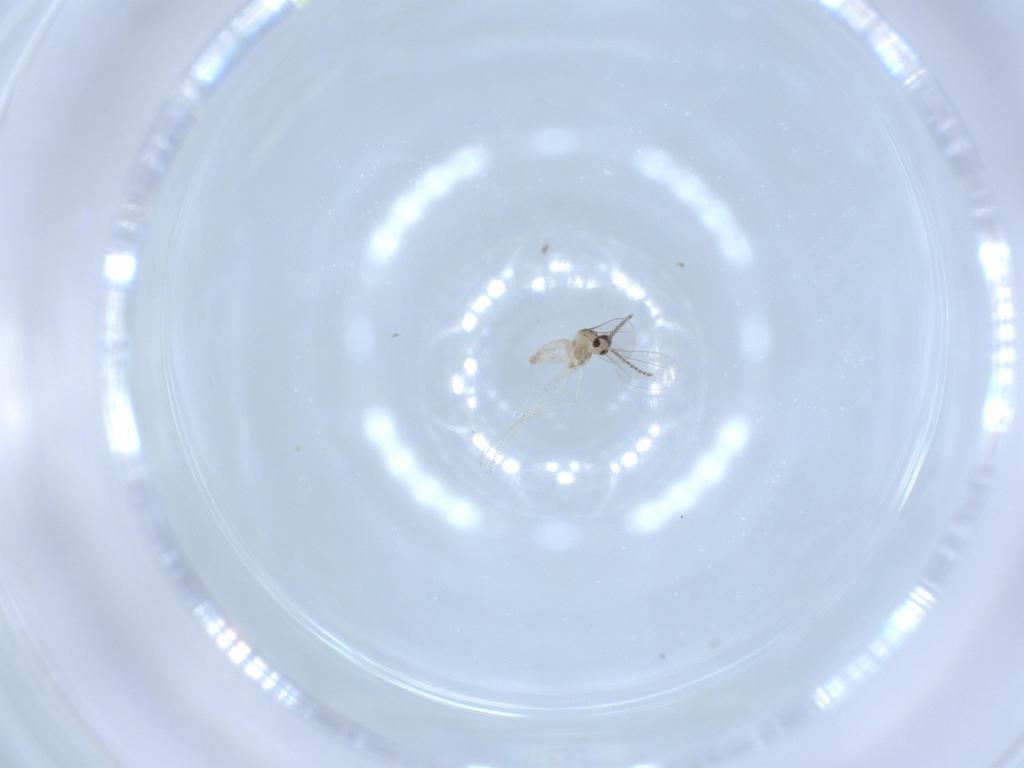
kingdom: Animalia
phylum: Arthropoda
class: Insecta
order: Diptera
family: Cecidomyiidae
